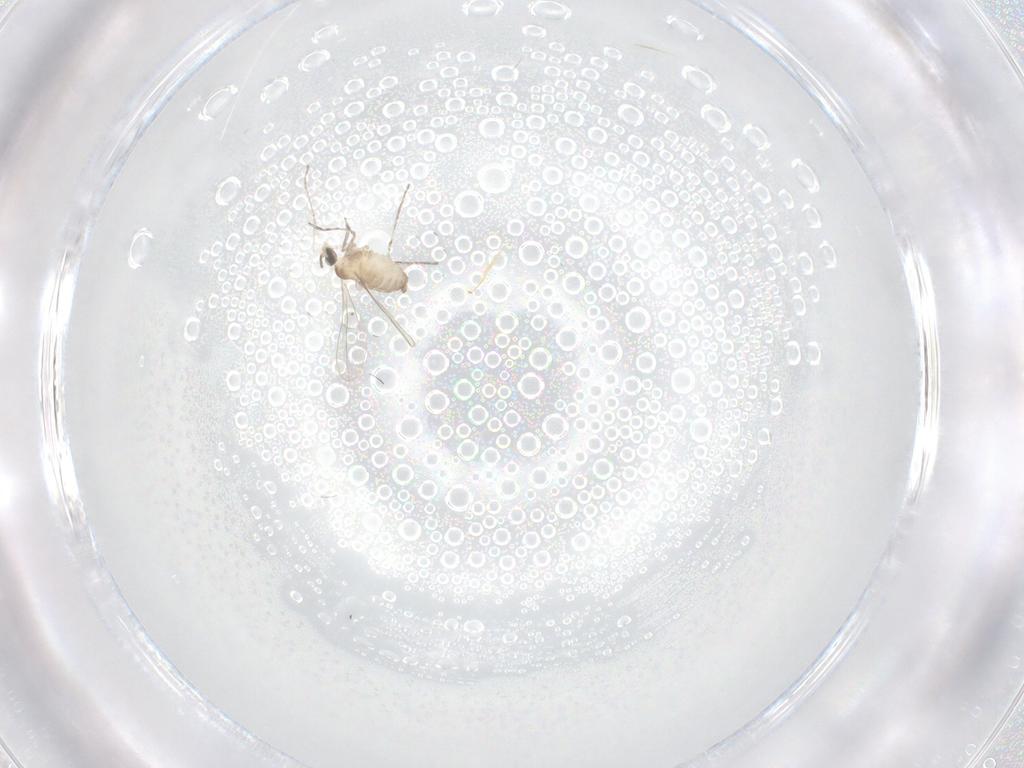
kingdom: Animalia
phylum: Arthropoda
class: Insecta
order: Diptera
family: Cecidomyiidae
